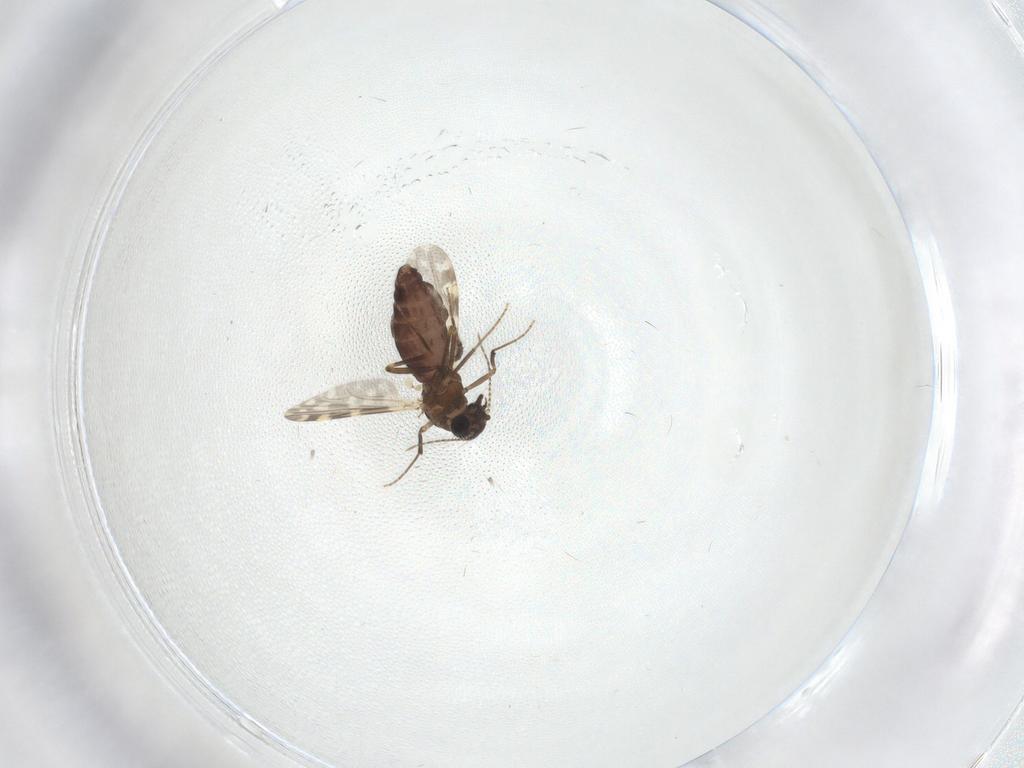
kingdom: Animalia
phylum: Arthropoda
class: Insecta
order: Diptera
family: Ceratopogonidae
